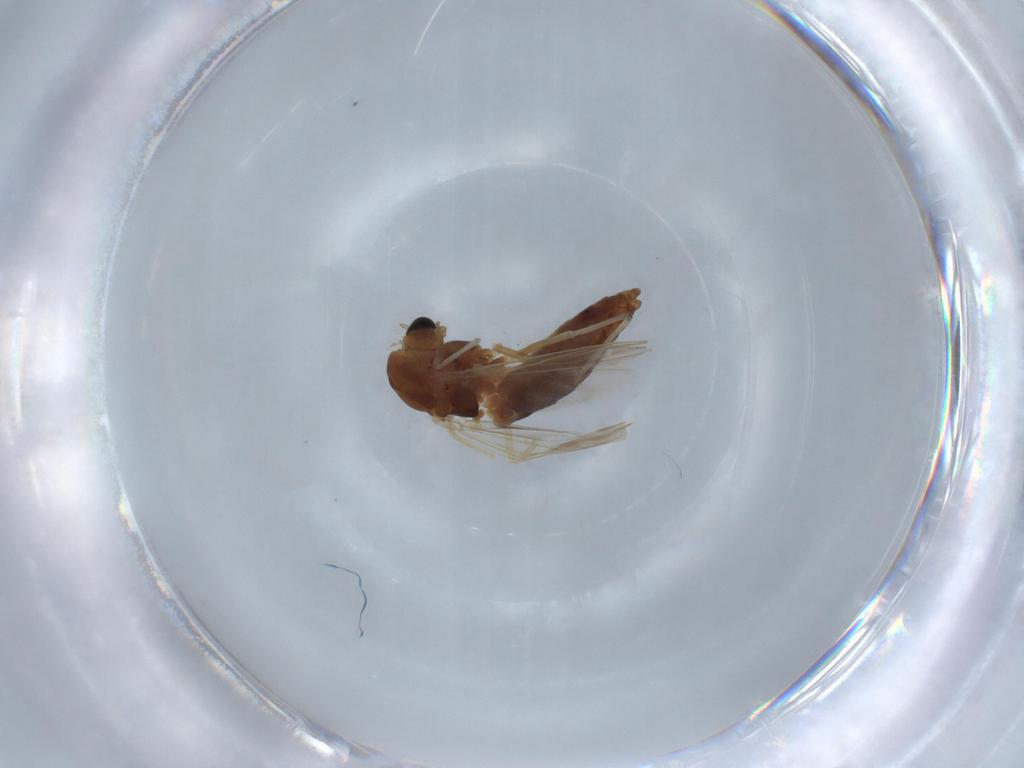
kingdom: Animalia
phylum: Arthropoda
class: Insecta
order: Diptera
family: Chironomidae
